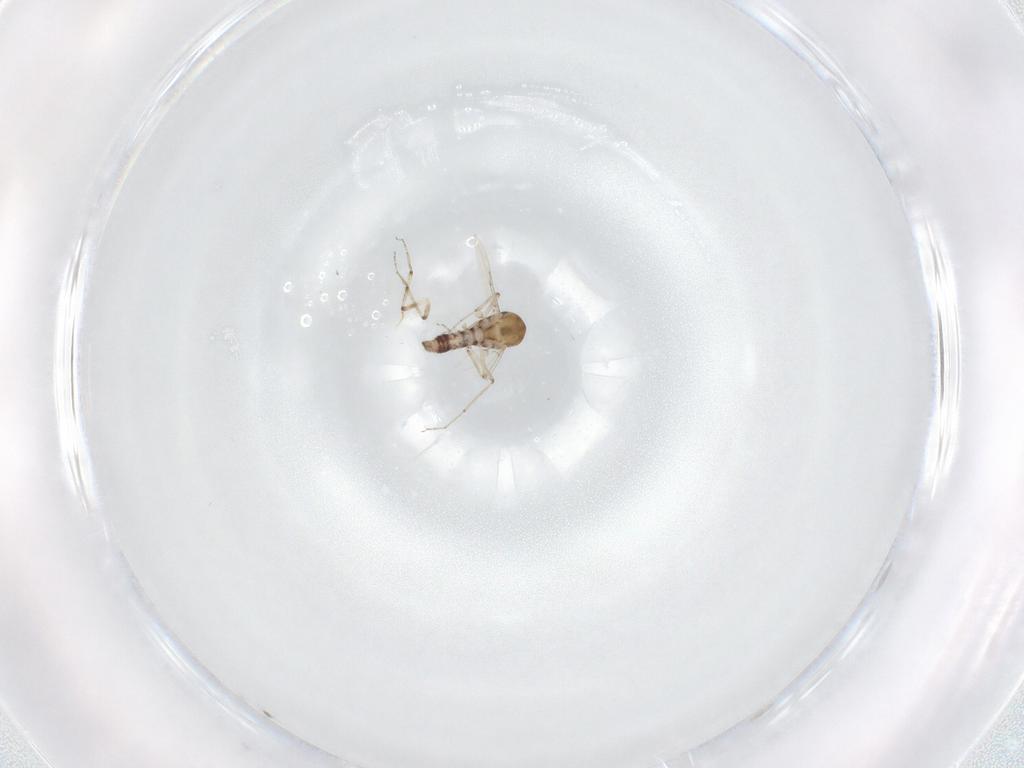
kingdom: Animalia
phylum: Arthropoda
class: Insecta
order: Diptera
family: Ceratopogonidae
